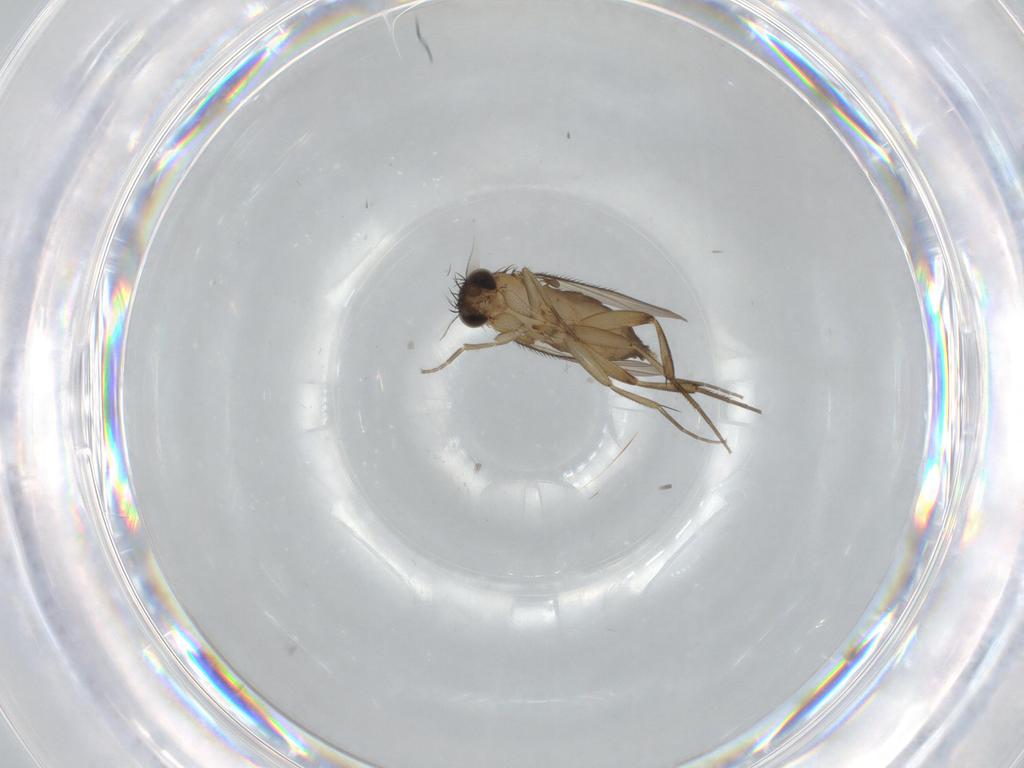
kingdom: Animalia
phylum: Arthropoda
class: Insecta
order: Diptera
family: Phoridae
